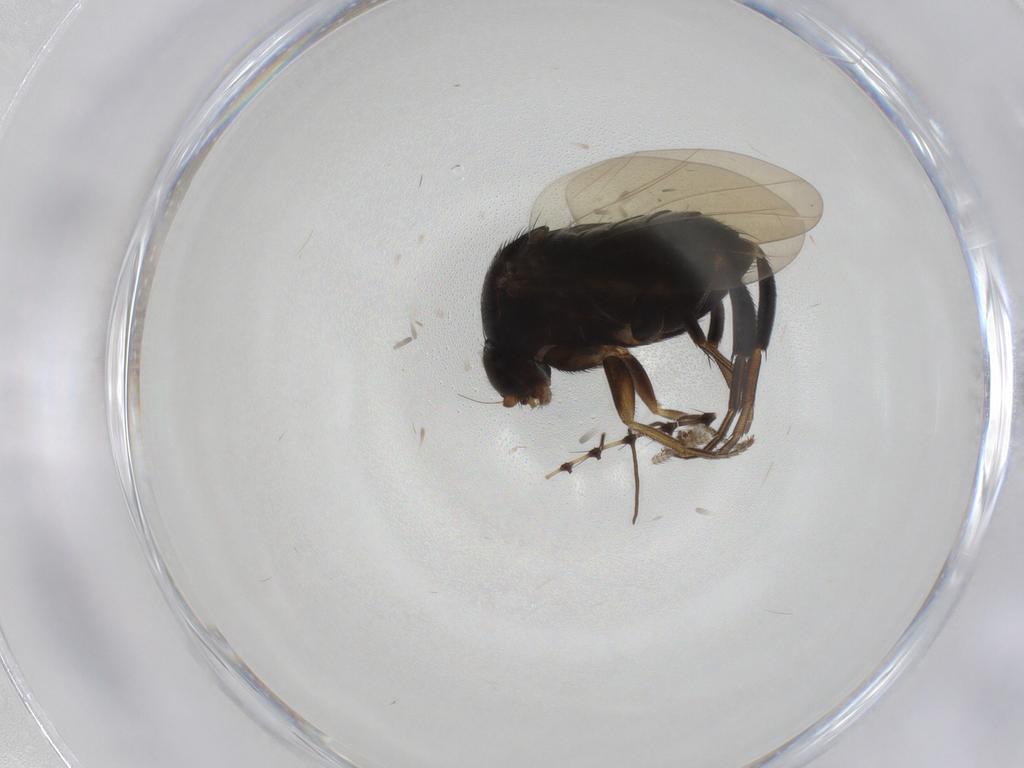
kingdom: Animalia
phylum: Arthropoda
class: Insecta
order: Diptera
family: Phoridae
